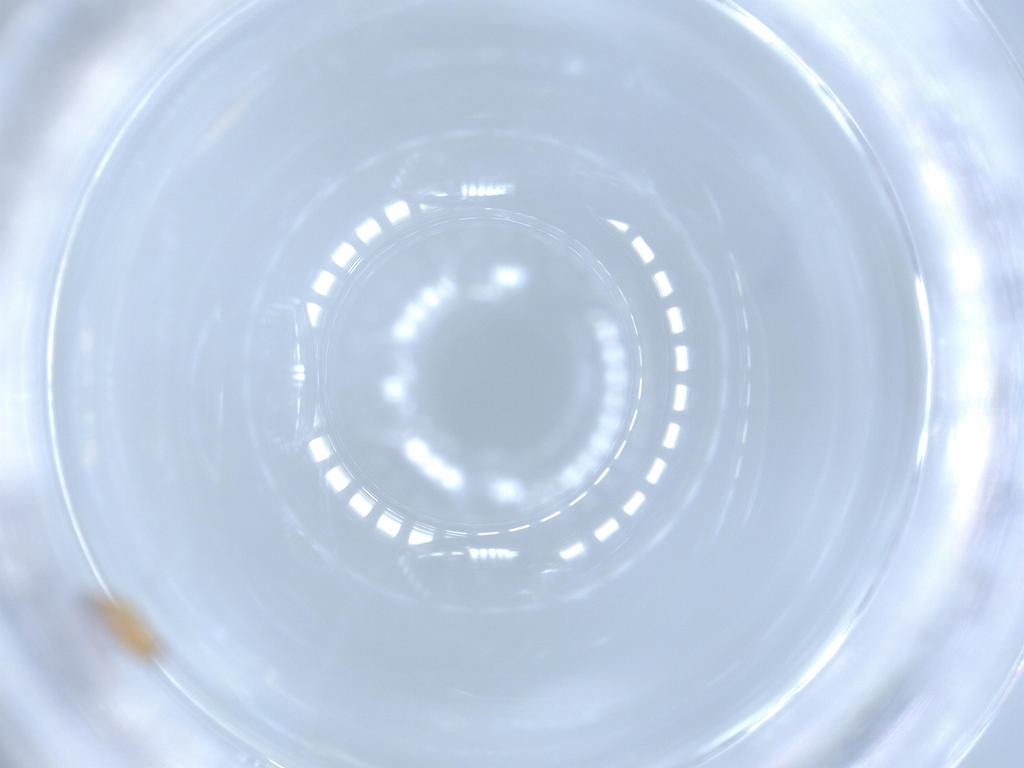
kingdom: Animalia
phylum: Arthropoda
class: Insecta
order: Thysanoptera
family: Thripidae
